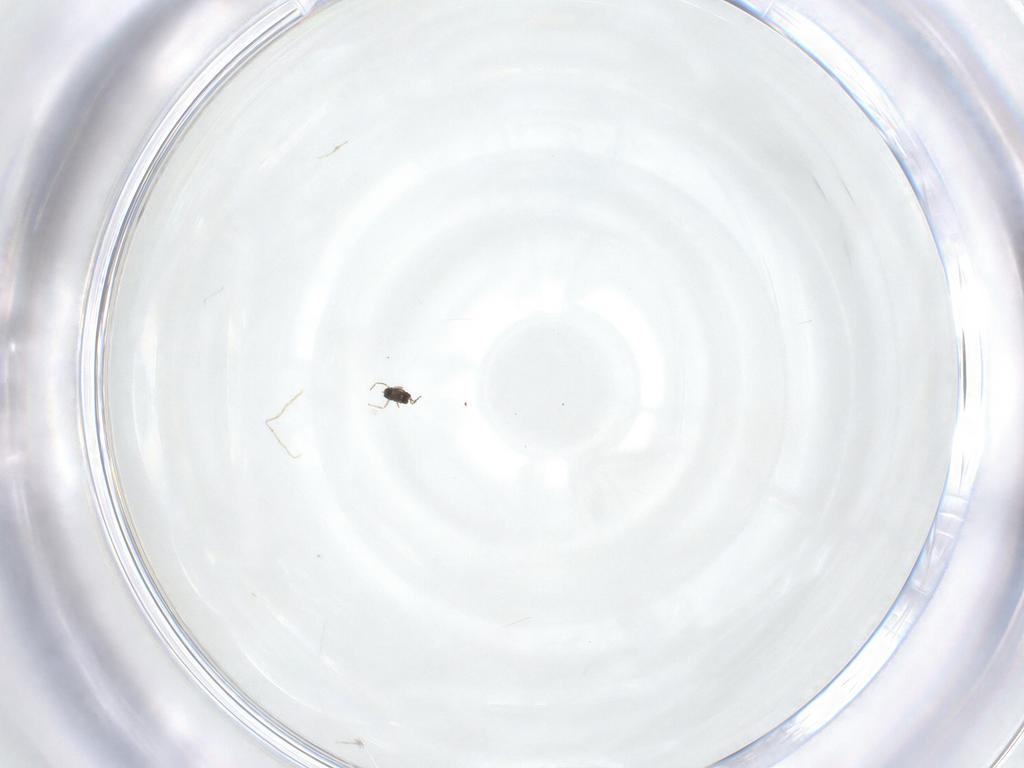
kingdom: Animalia
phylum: Arthropoda
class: Insecta
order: Hymenoptera
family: Mymaridae
